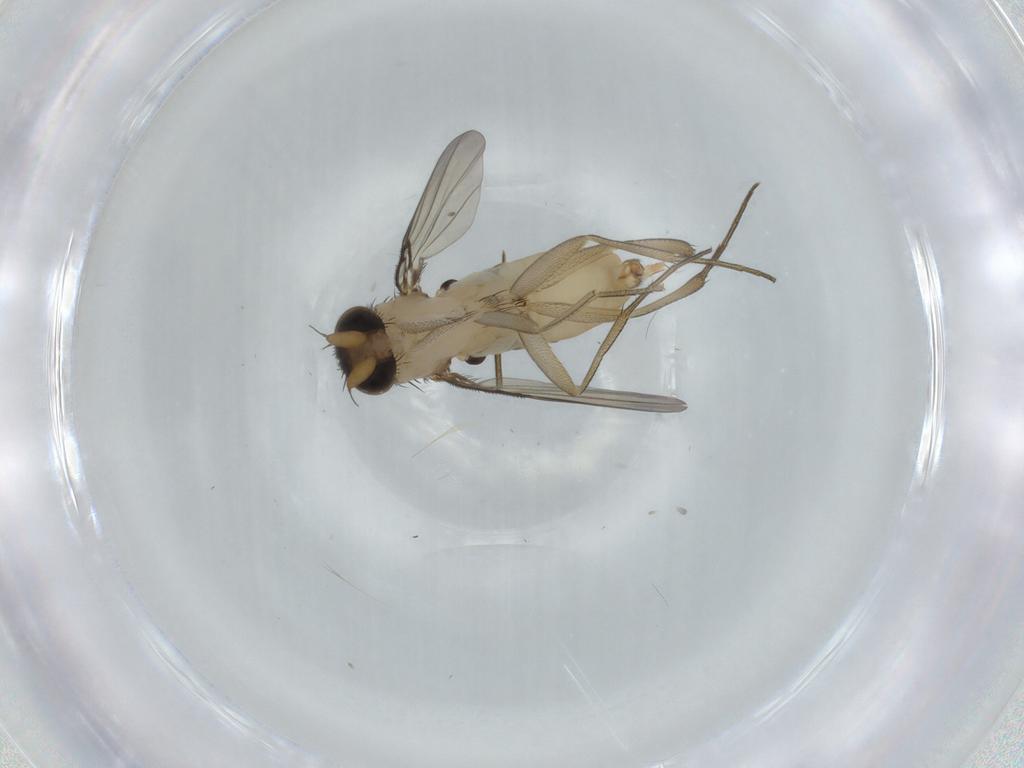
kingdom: Animalia
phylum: Arthropoda
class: Insecta
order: Diptera
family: Phoridae
